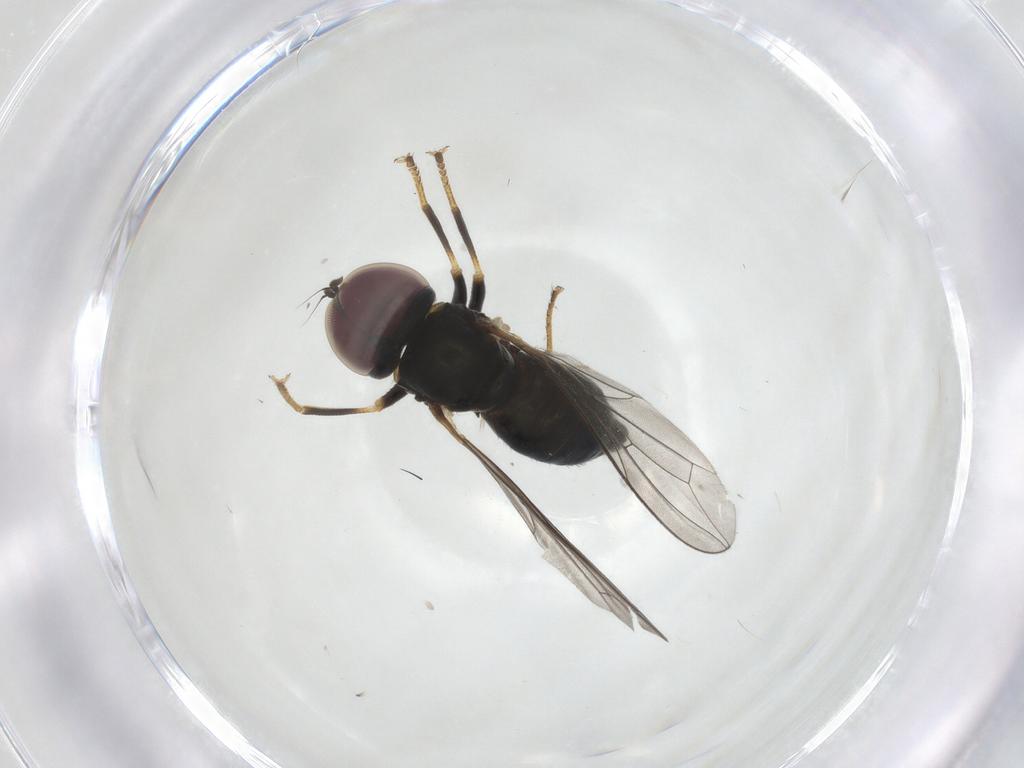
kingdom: Animalia
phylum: Arthropoda
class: Insecta
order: Diptera
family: Pipunculidae
